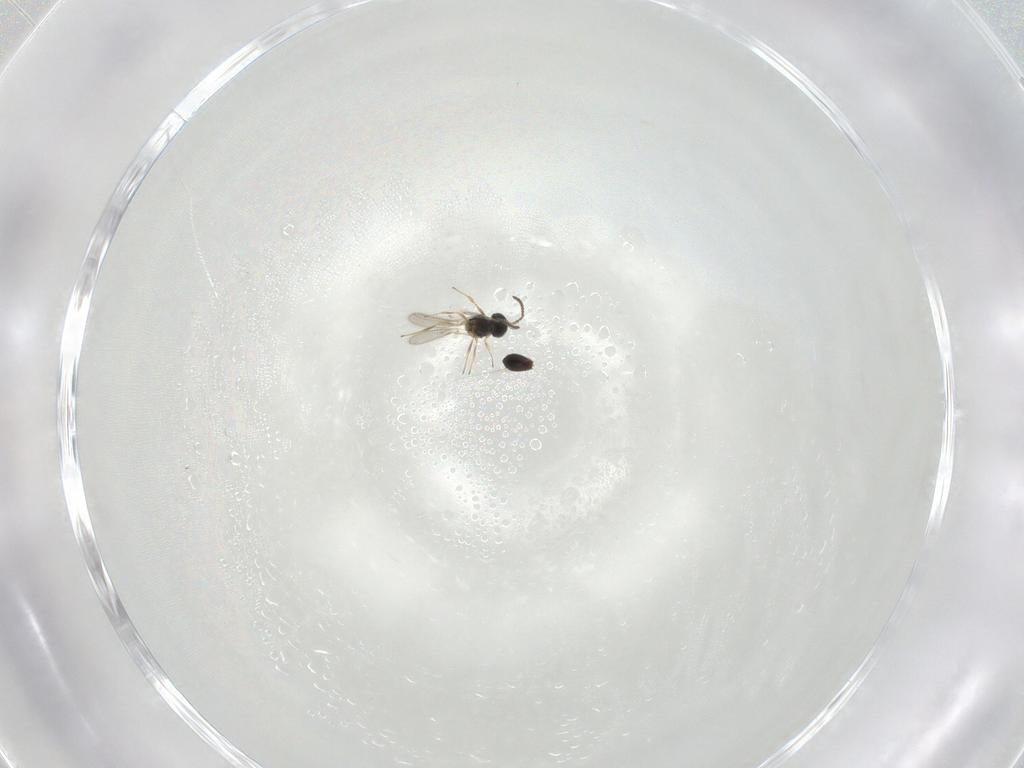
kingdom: Animalia
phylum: Arthropoda
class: Insecta
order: Hymenoptera
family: Scelionidae
